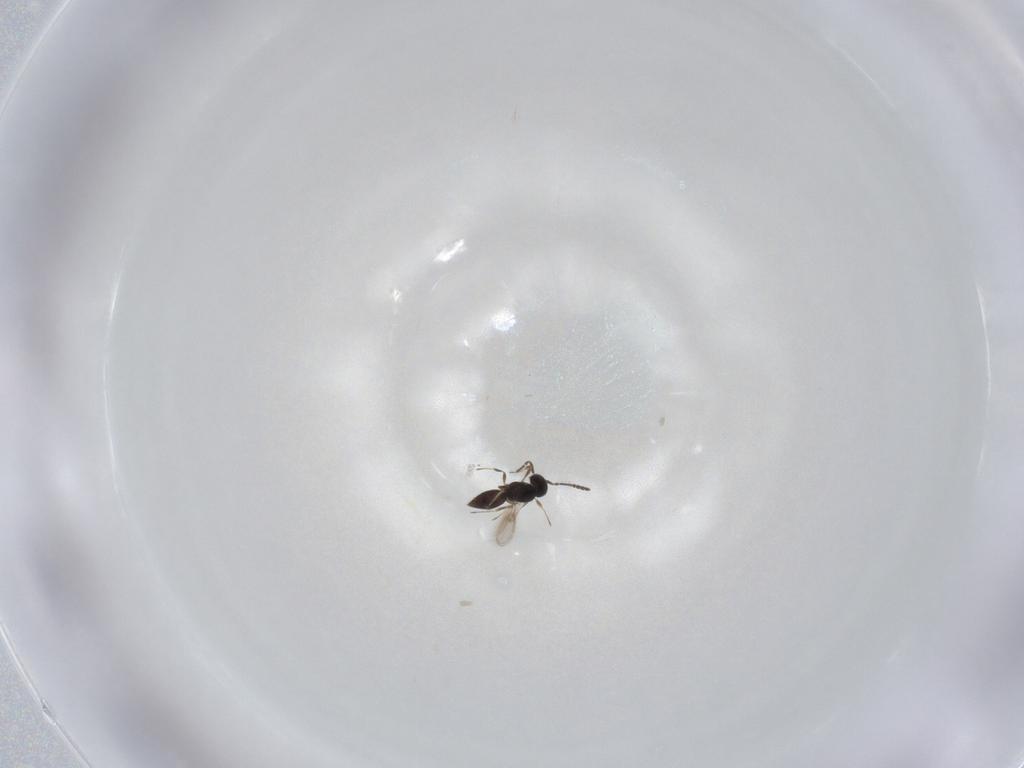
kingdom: Animalia
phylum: Arthropoda
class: Insecta
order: Hymenoptera
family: Scelionidae
